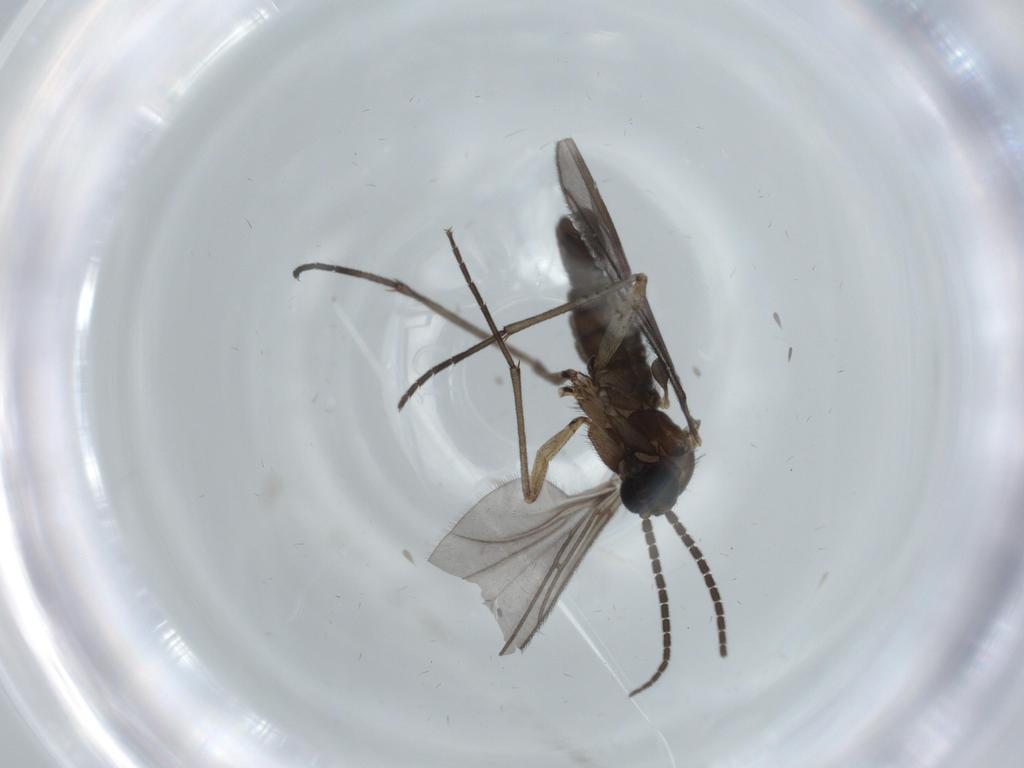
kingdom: Animalia
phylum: Arthropoda
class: Insecta
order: Diptera
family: Sciaridae
